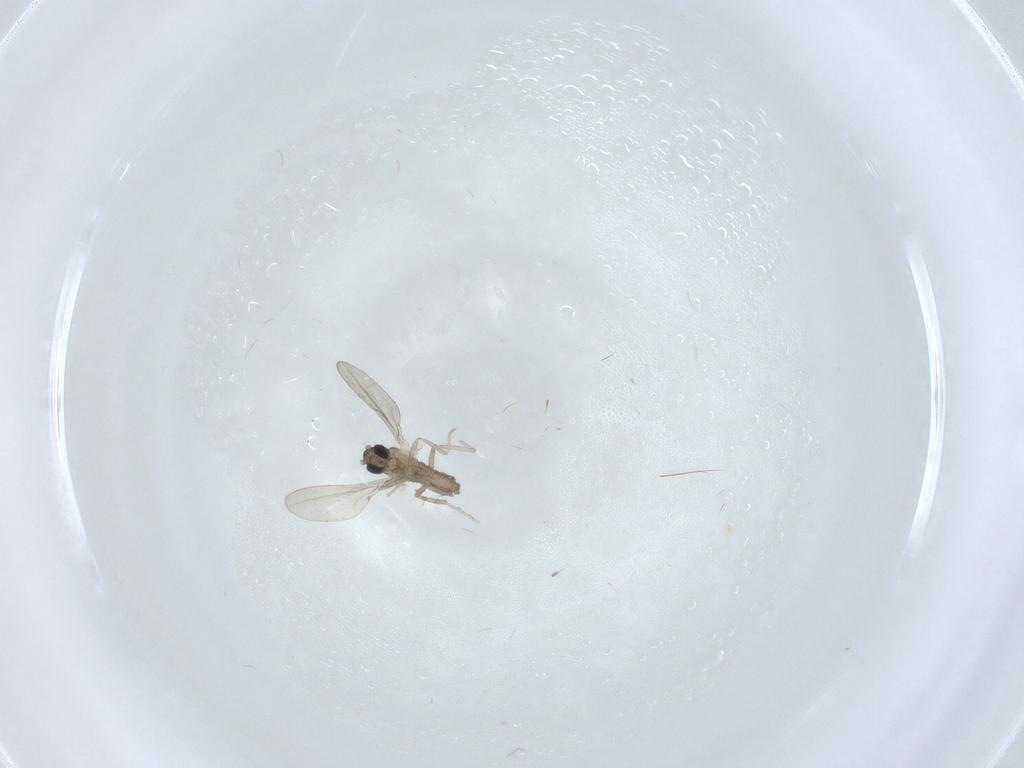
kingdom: Animalia
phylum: Arthropoda
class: Insecta
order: Diptera
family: Cecidomyiidae
